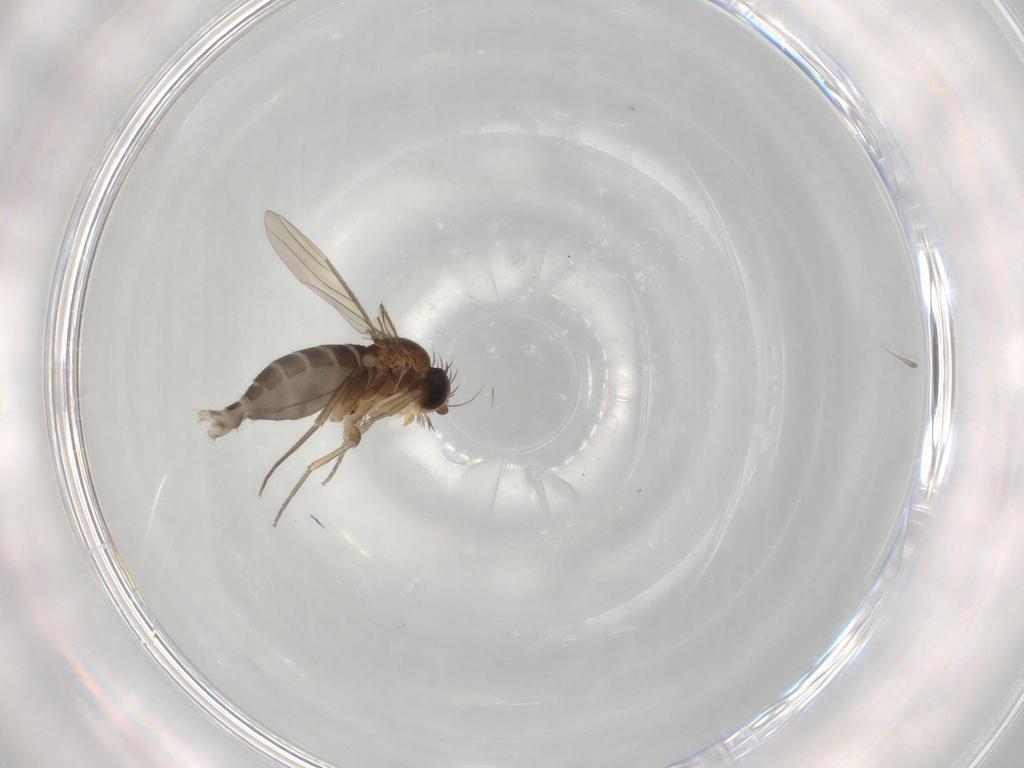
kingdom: Animalia
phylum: Arthropoda
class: Insecta
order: Diptera
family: Phoridae
